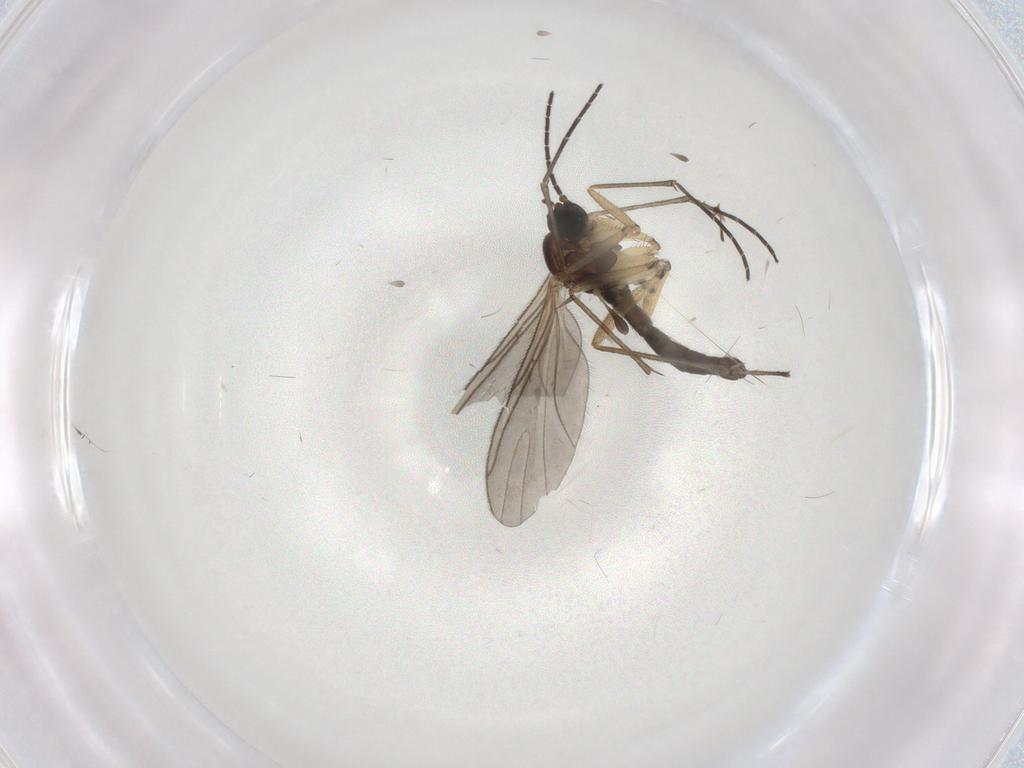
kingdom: Animalia
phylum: Arthropoda
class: Insecta
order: Diptera
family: Sciaridae
